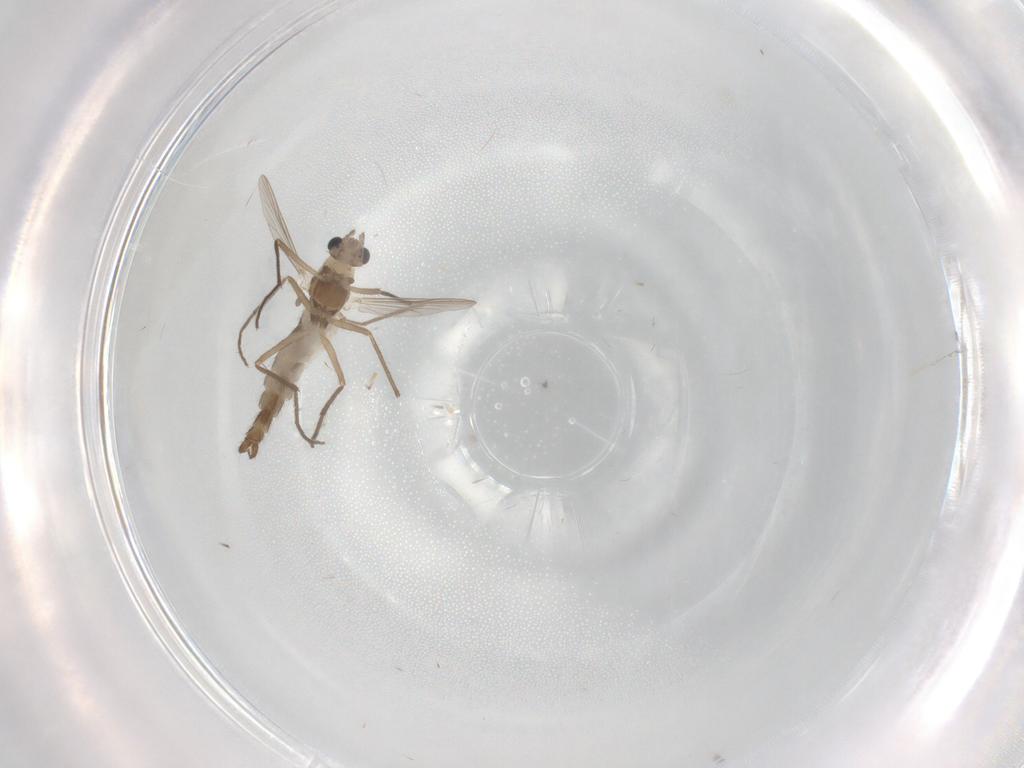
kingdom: Animalia
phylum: Arthropoda
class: Insecta
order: Diptera
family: Chironomidae
